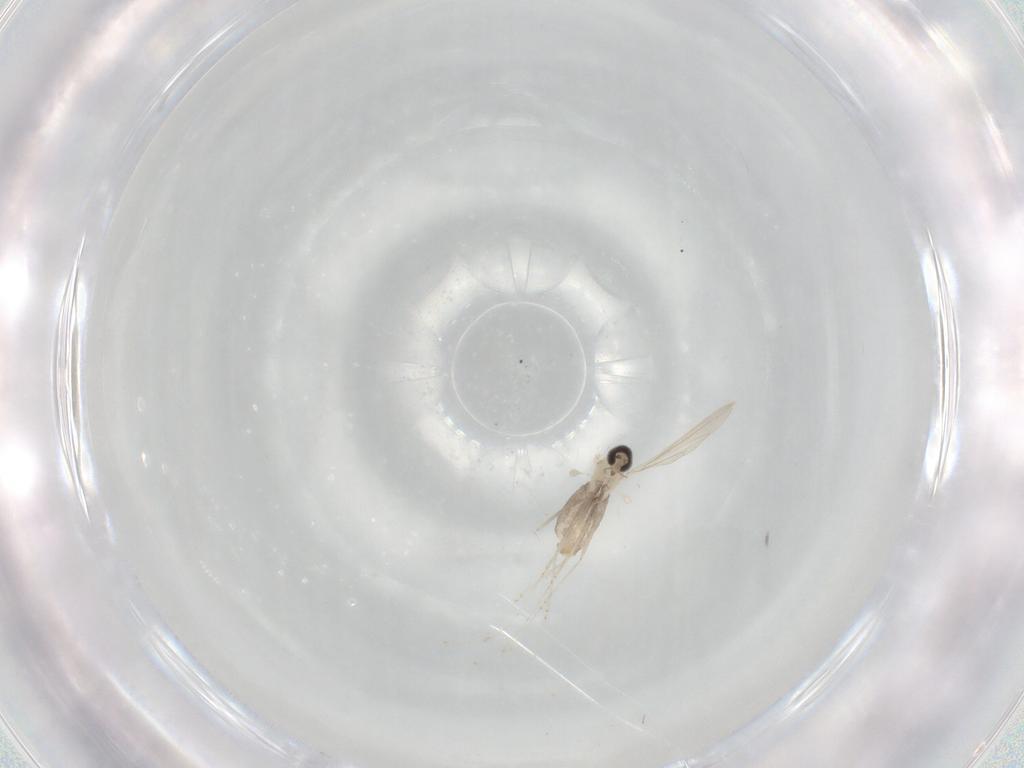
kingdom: Animalia
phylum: Arthropoda
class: Insecta
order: Diptera
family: Cecidomyiidae
